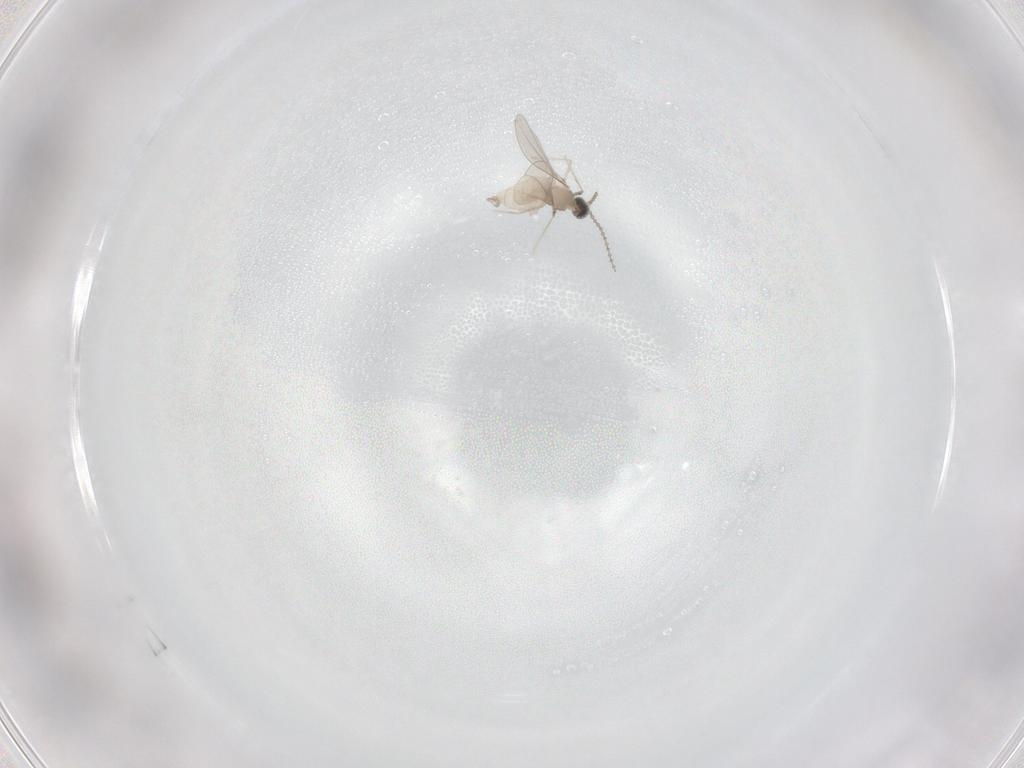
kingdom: Animalia
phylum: Arthropoda
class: Insecta
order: Diptera
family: Cecidomyiidae
